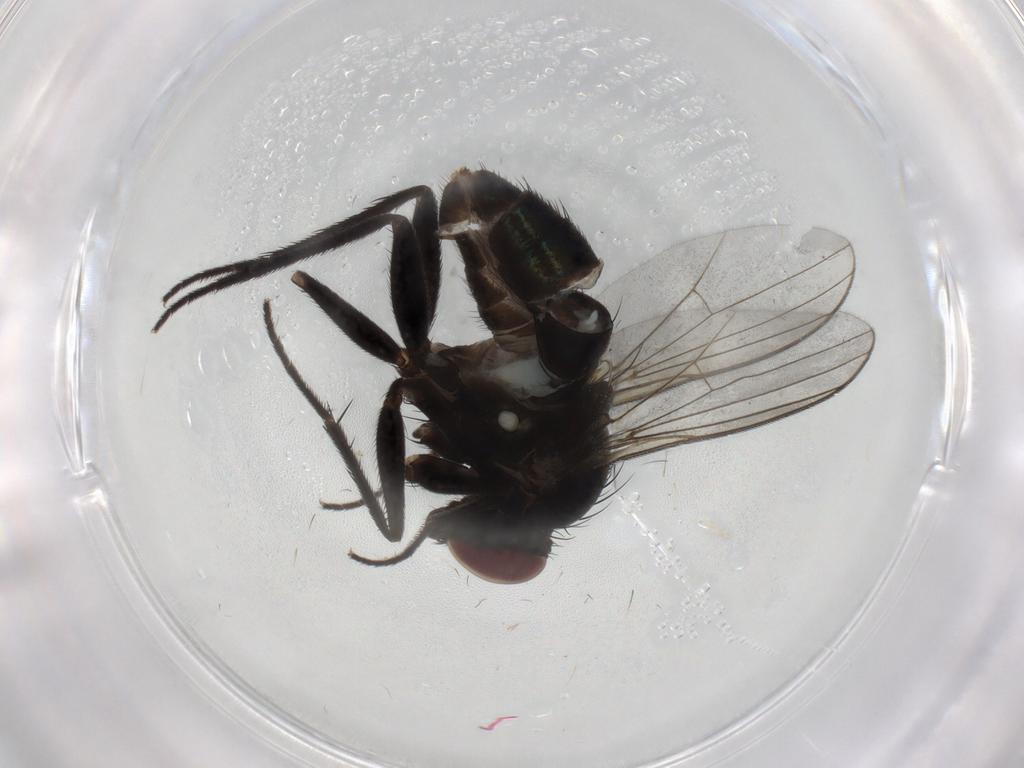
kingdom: Animalia
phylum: Arthropoda
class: Insecta
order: Diptera
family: Dolichopodidae
